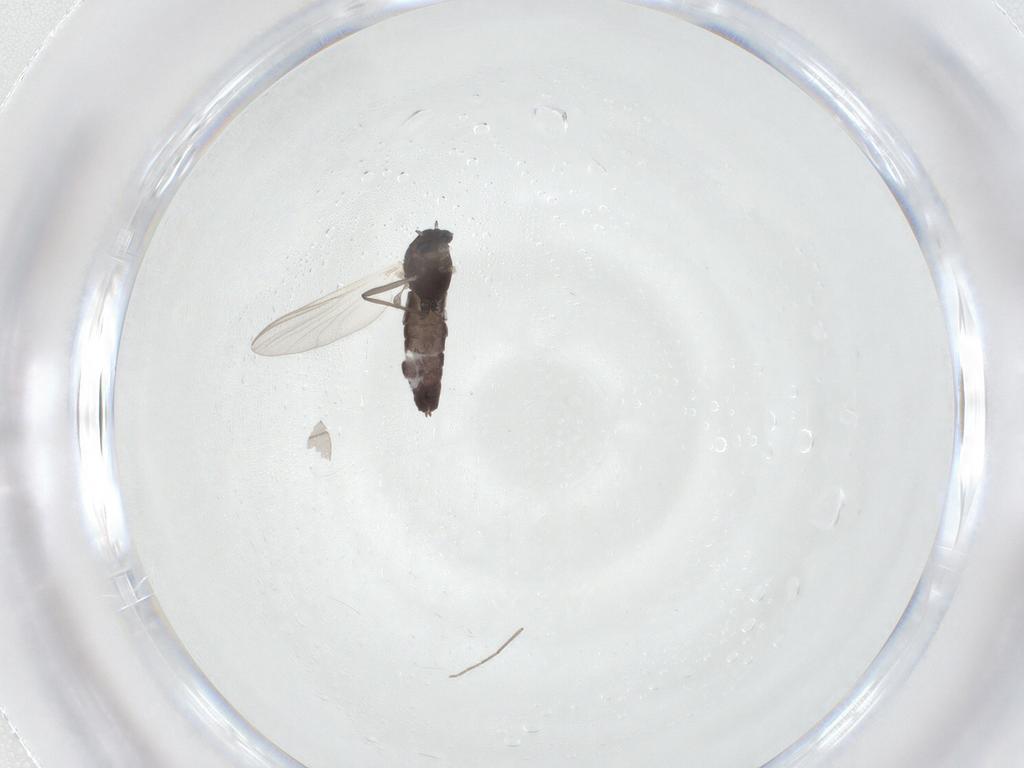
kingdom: Animalia
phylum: Arthropoda
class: Insecta
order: Diptera
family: Chironomidae
